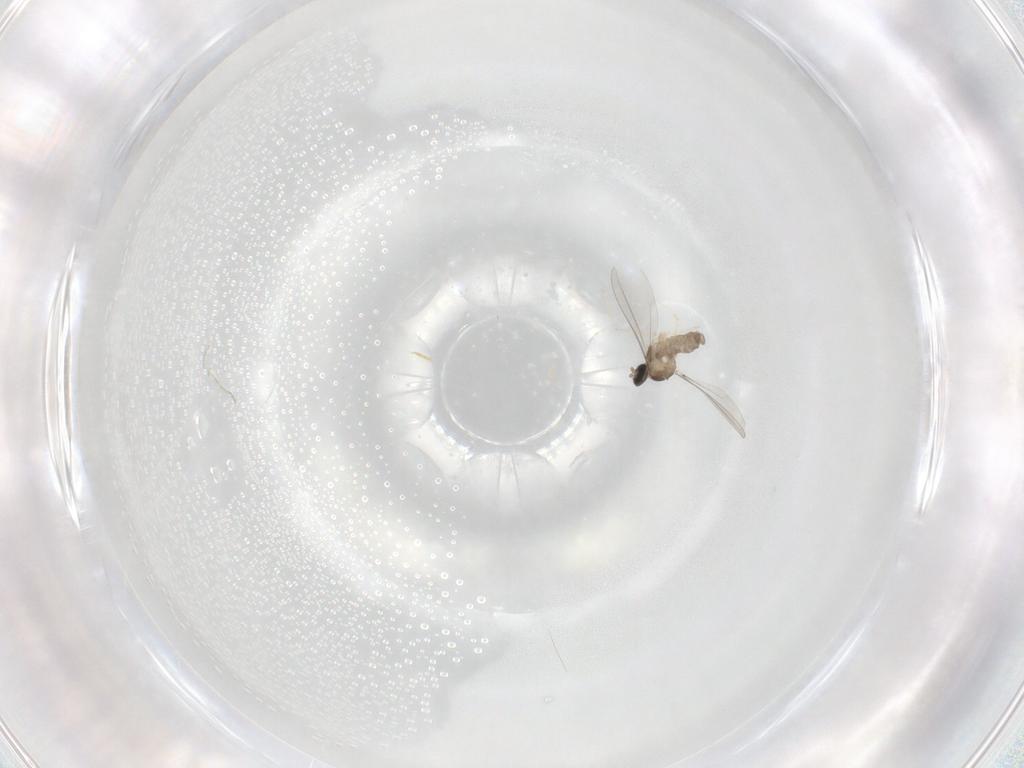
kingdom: Animalia
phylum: Arthropoda
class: Insecta
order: Diptera
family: Cecidomyiidae
